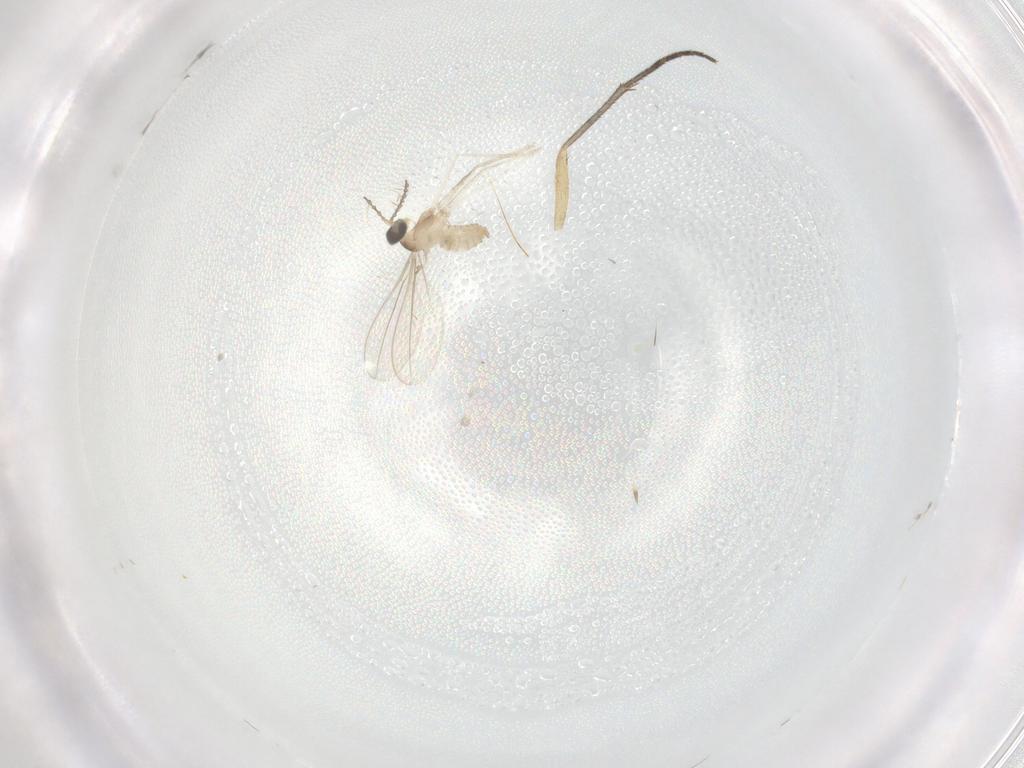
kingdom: Animalia
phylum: Arthropoda
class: Insecta
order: Diptera
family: Cecidomyiidae
